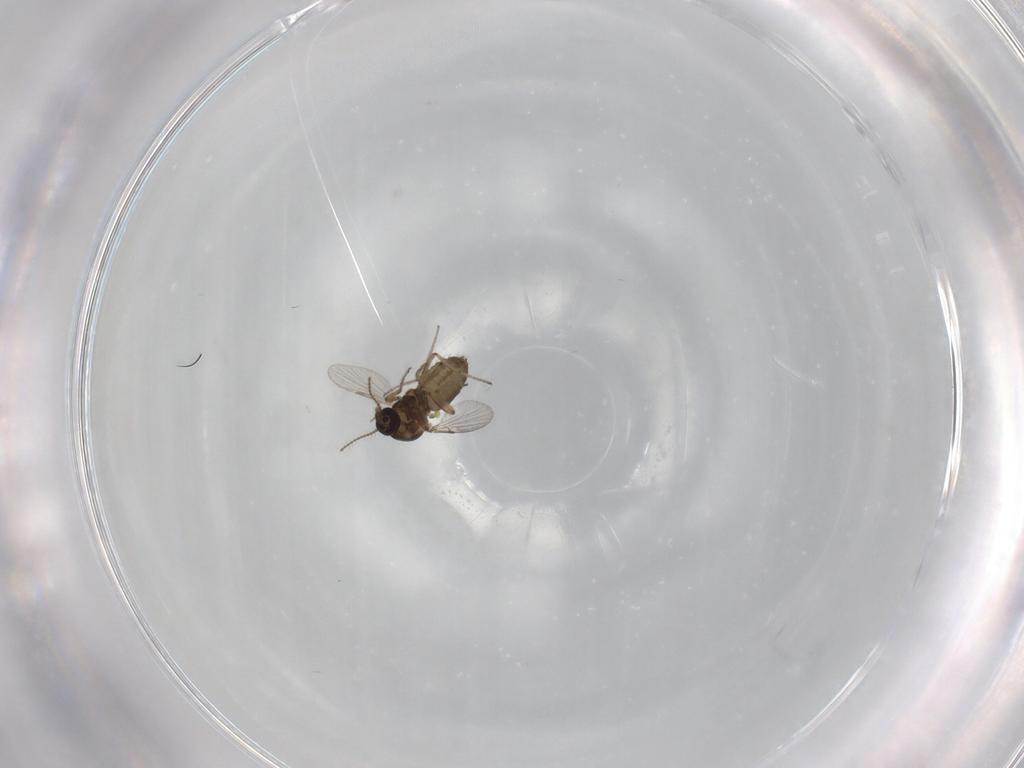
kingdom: Animalia
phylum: Arthropoda
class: Insecta
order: Diptera
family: Ceratopogonidae
